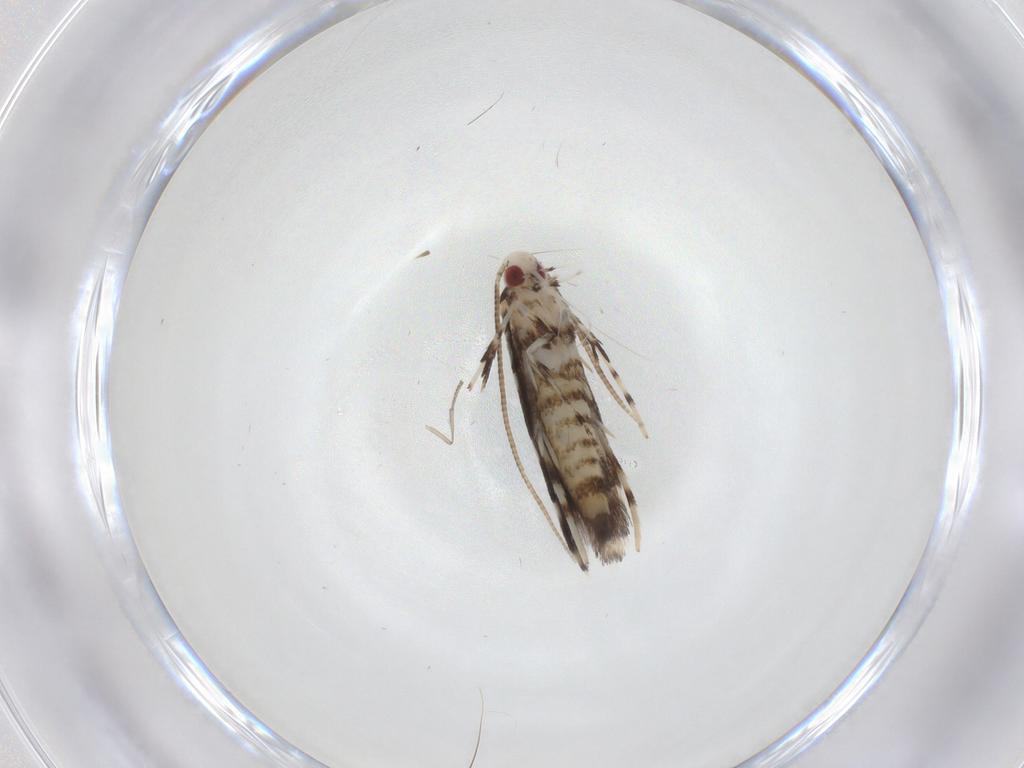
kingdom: Animalia
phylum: Arthropoda
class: Insecta
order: Lepidoptera
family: Gracillariidae
